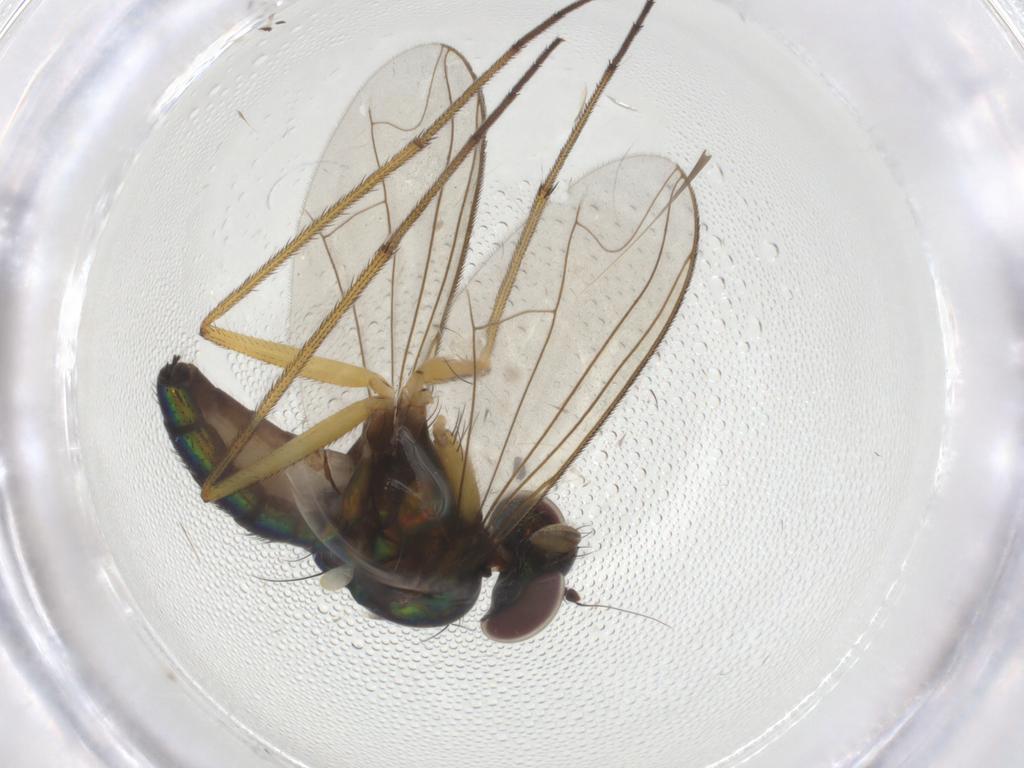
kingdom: Animalia
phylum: Arthropoda
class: Insecta
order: Diptera
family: Dolichopodidae
